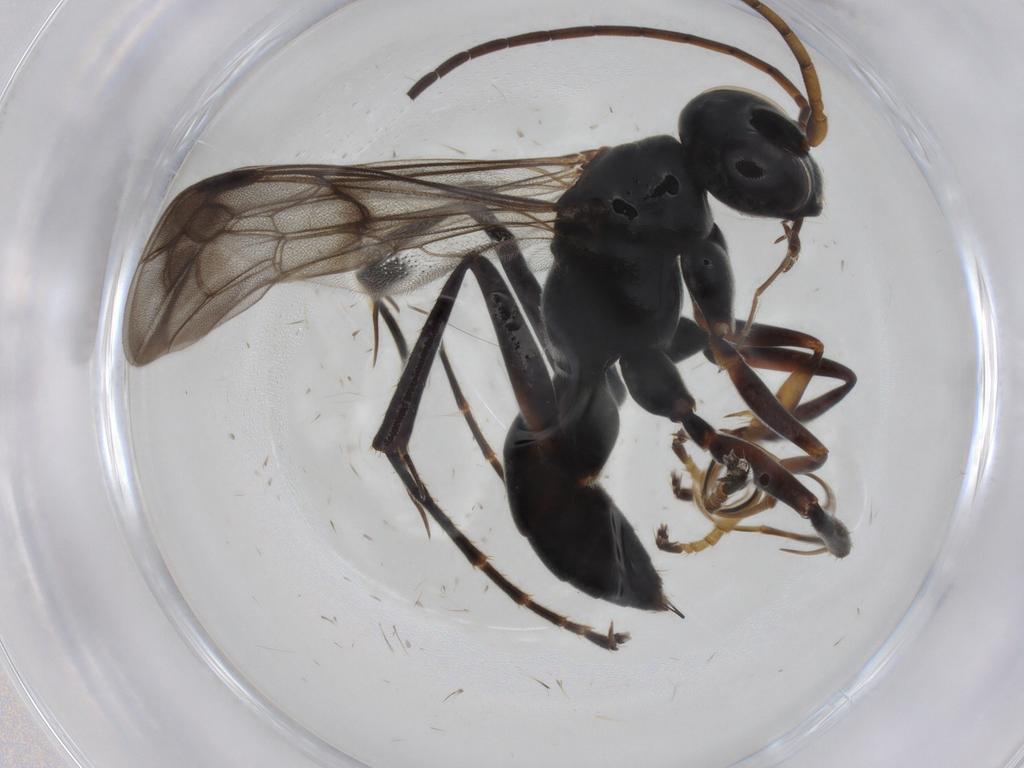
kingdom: Animalia
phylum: Arthropoda
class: Insecta
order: Hymenoptera
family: Pompilidae
